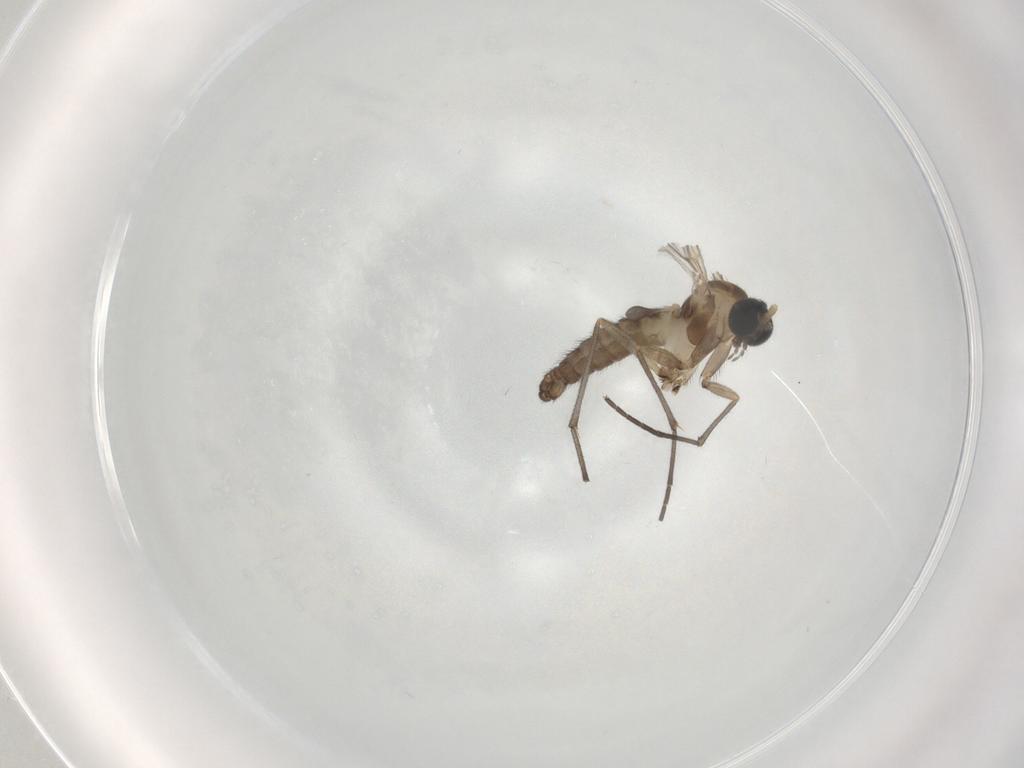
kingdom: Animalia
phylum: Arthropoda
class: Insecta
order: Diptera
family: Sciaridae
